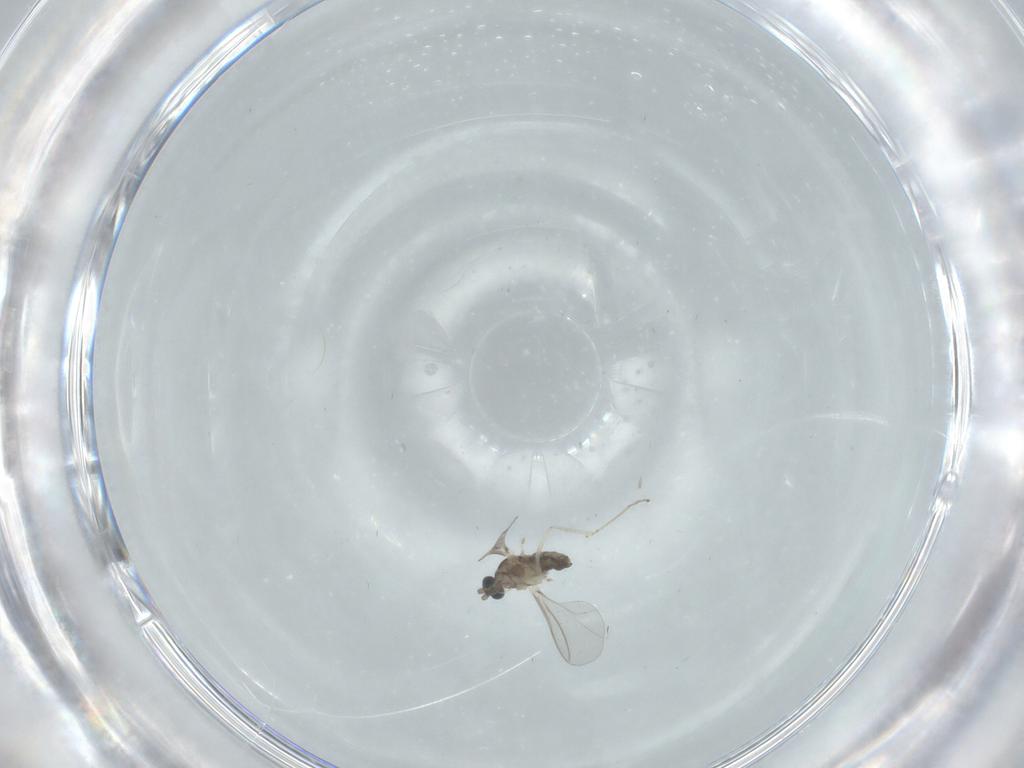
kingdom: Animalia
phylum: Arthropoda
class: Insecta
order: Diptera
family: Cecidomyiidae
